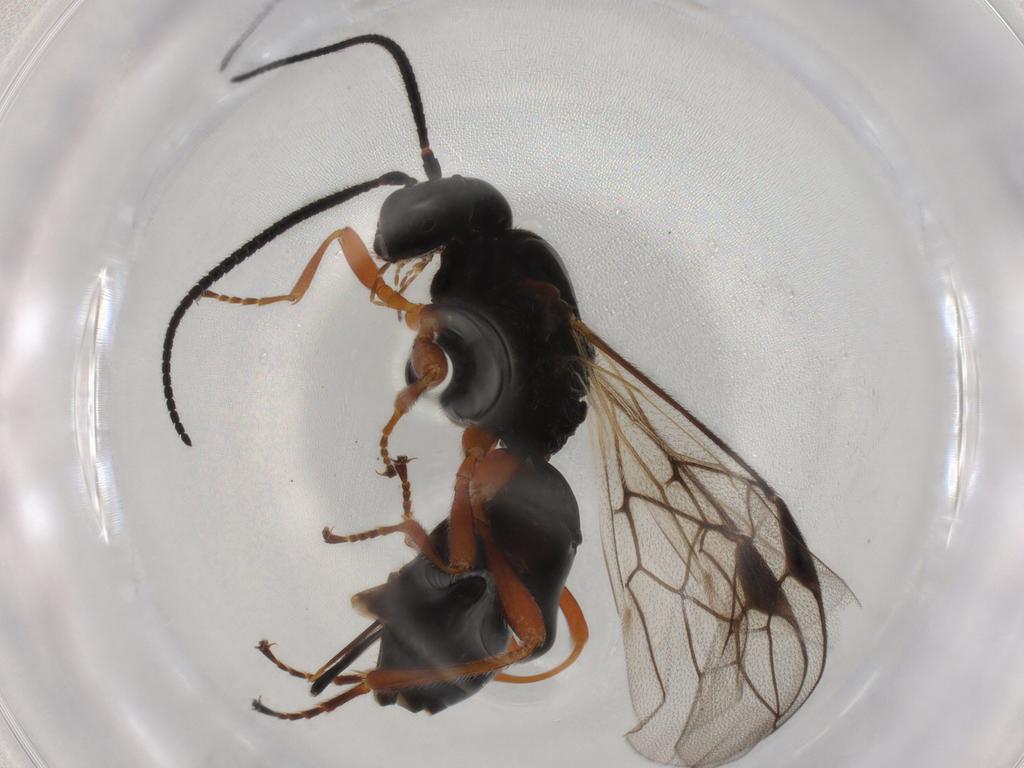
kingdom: Animalia
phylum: Arthropoda
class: Insecta
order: Hymenoptera
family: Braconidae
